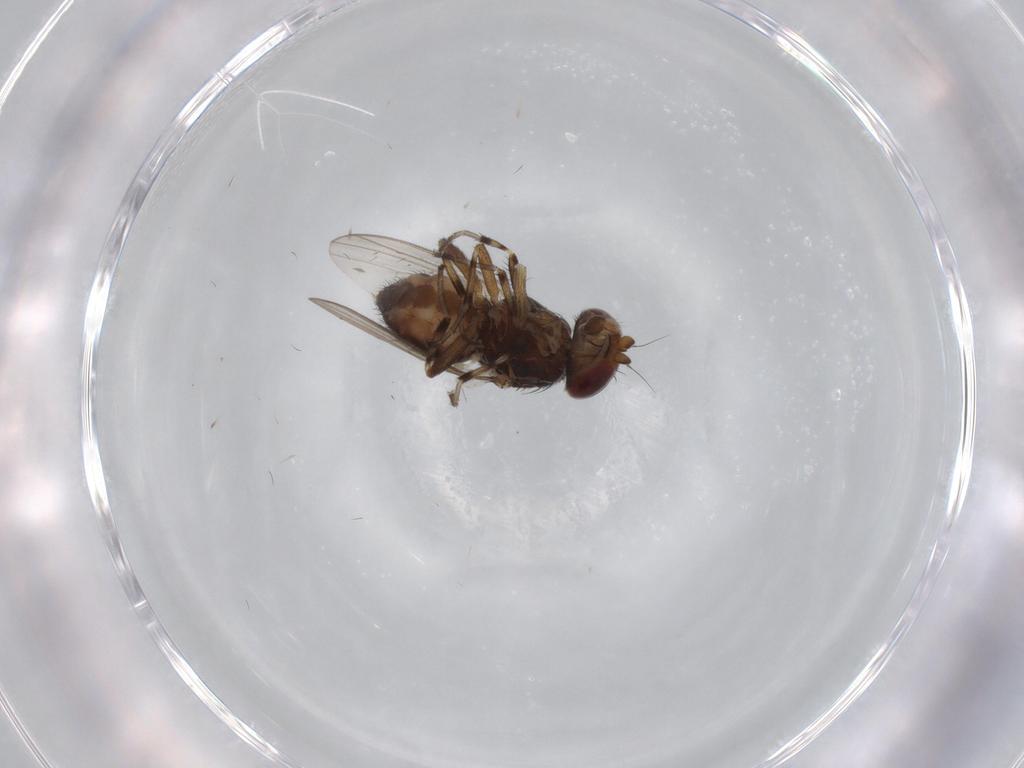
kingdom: Animalia
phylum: Arthropoda
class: Insecta
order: Diptera
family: Heleomyzidae
